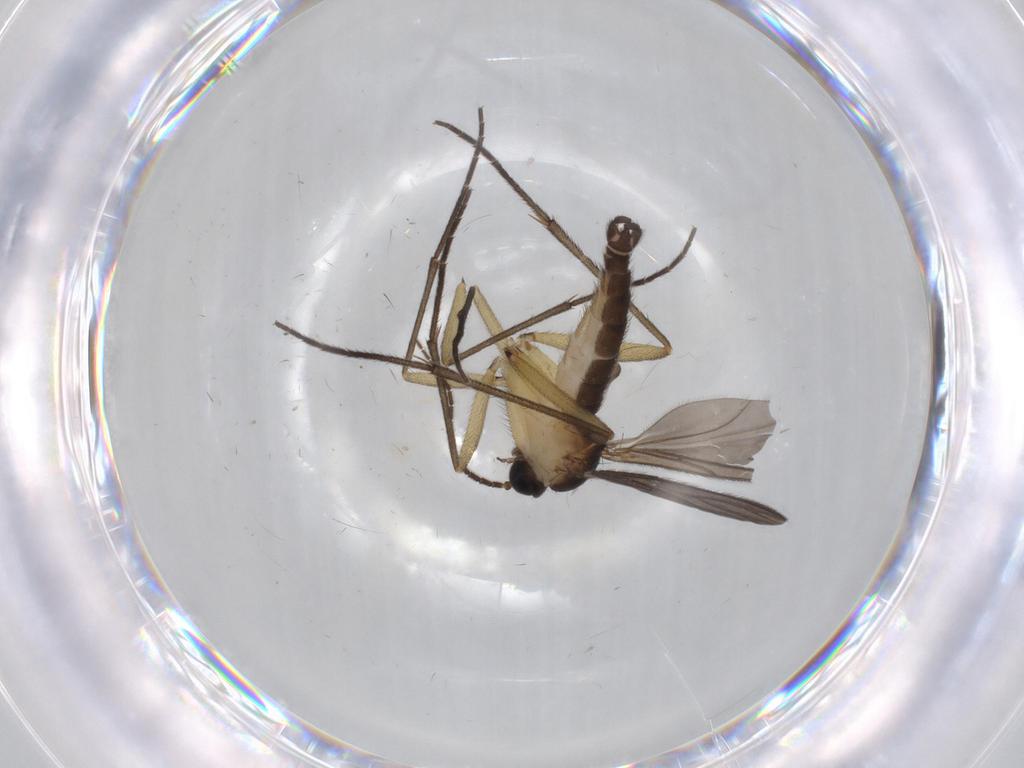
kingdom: Animalia
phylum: Arthropoda
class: Insecta
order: Diptera
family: Sciaridae
